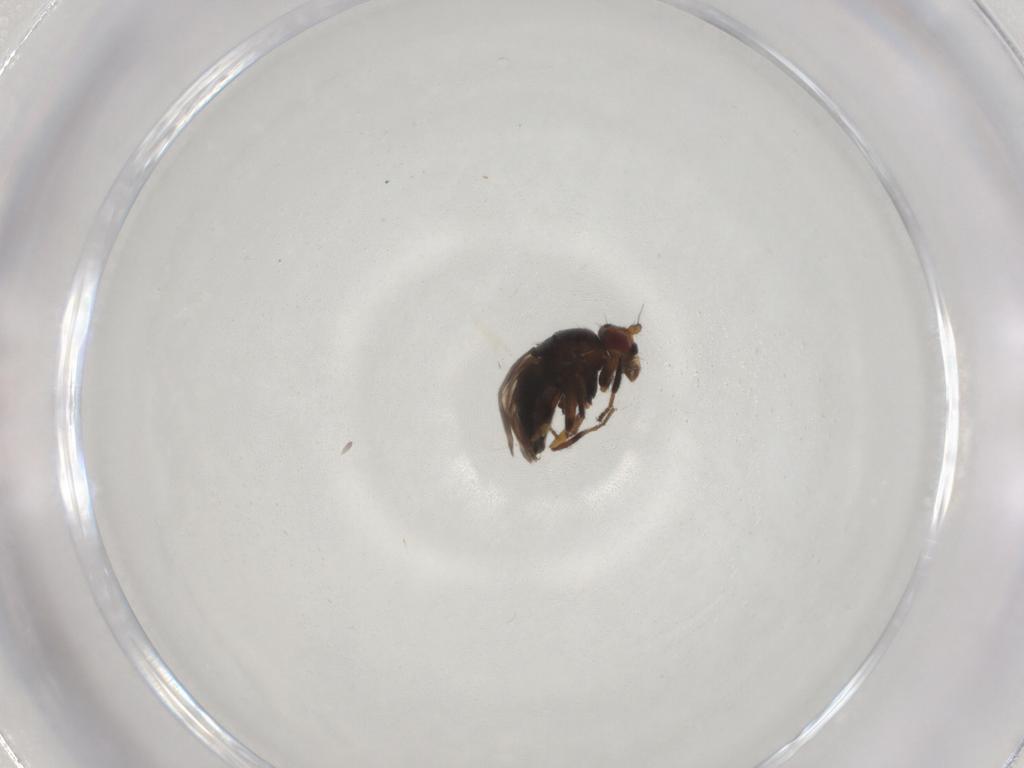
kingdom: Animalia
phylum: Arthropoda
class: Insecta
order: Diptera
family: Sphaeroceridae
